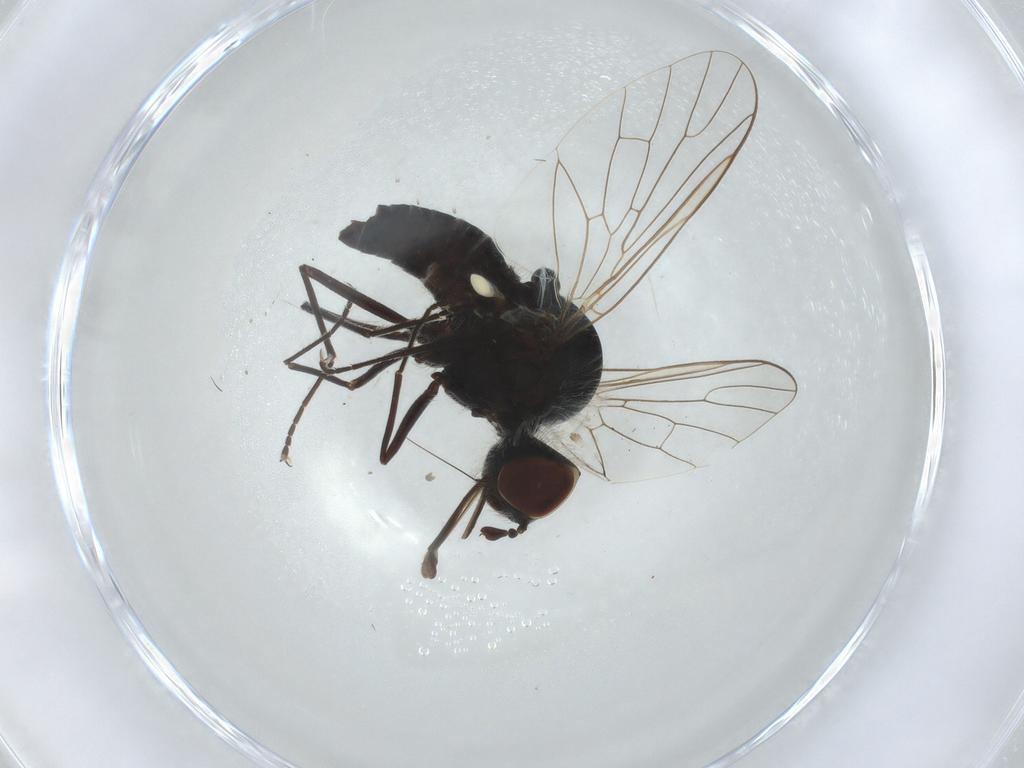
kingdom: Animalia
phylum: Arthropoda
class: Insecta
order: Diptera
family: Bombyliidae
